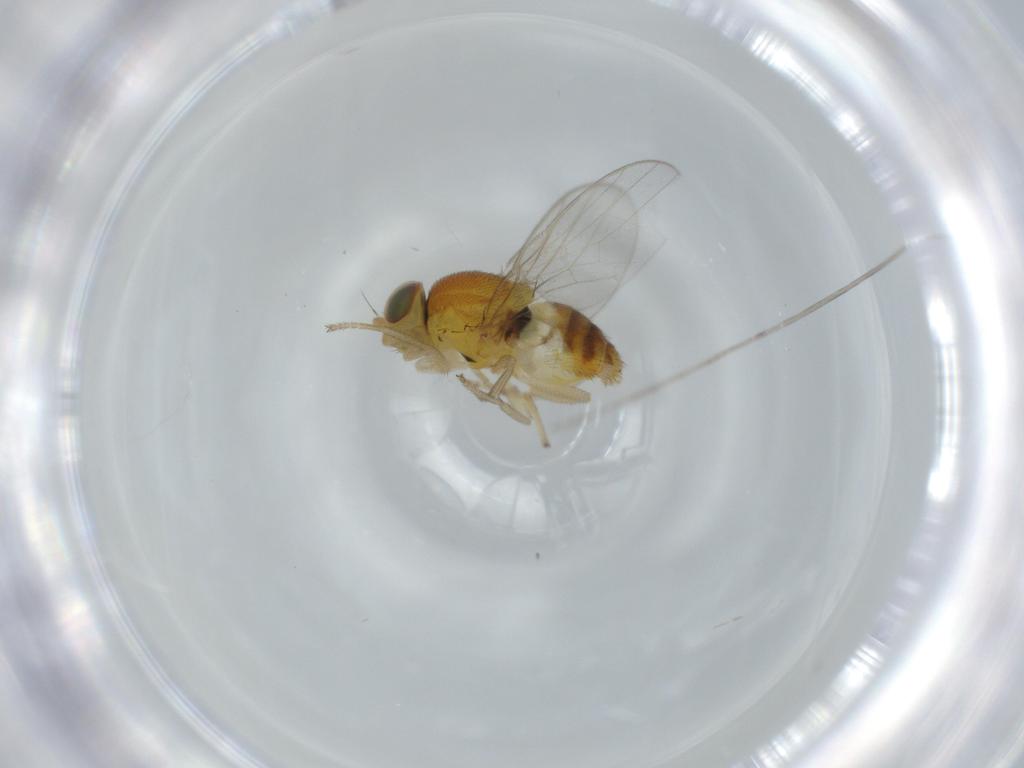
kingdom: Animalia
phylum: Arthropoda
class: Insecta
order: Diptera
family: Chloropidae
